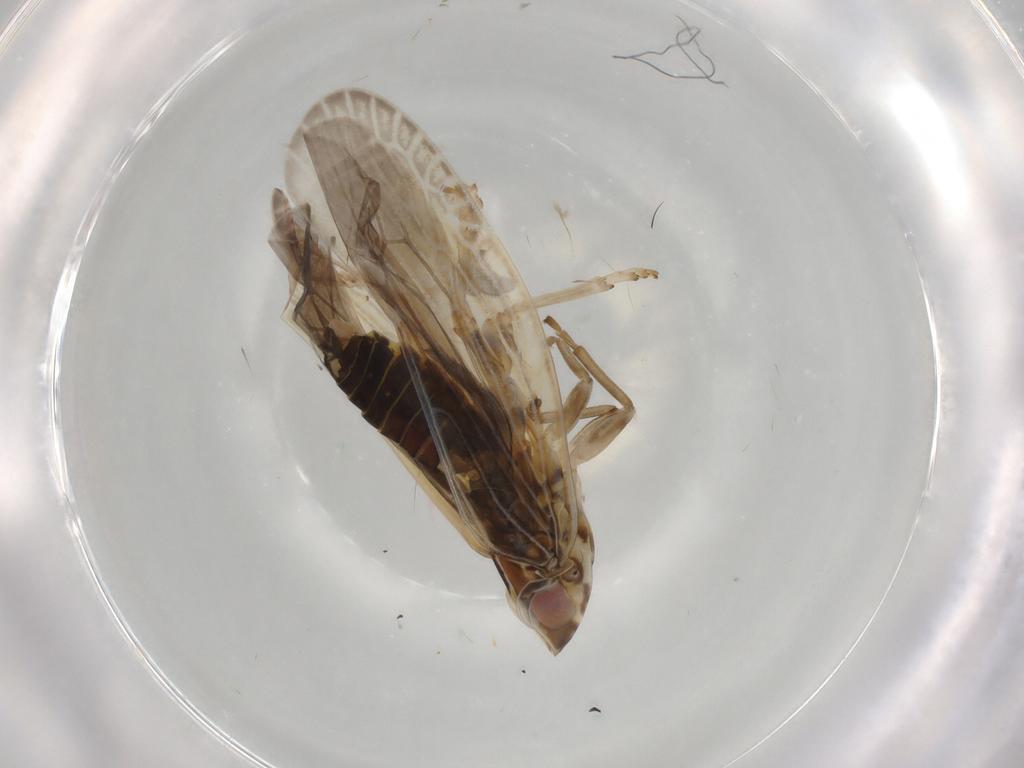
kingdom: Animalia
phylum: Arthropoda
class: Insecta
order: Hemiptera
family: Achilidae
